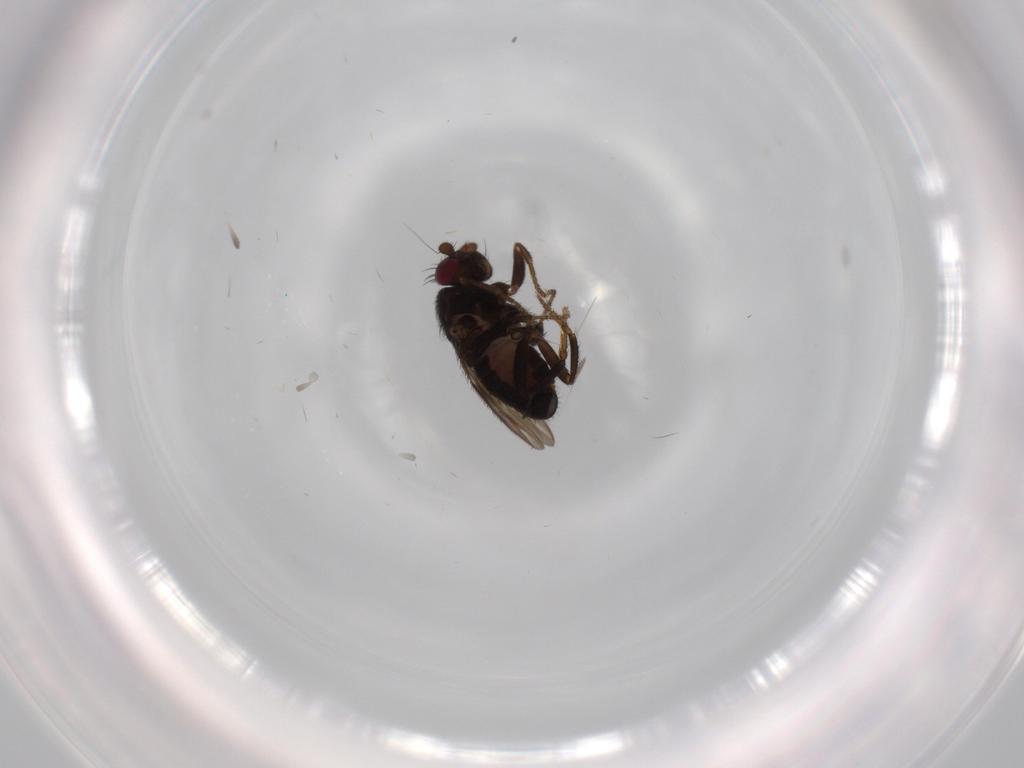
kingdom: Animalia
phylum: Arthropoda
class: Insecta
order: Diptera
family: Sphaeroceridae
